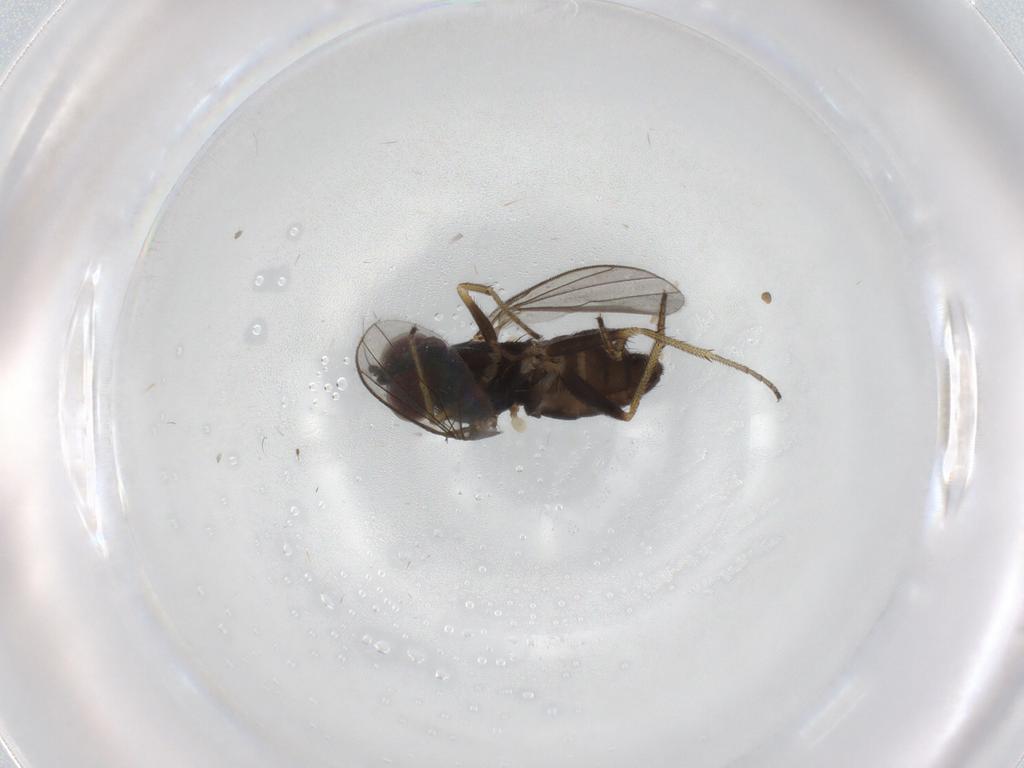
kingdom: Animalia
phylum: Arthropoda
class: Insecta
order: Diptera
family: Dolichopodidae
